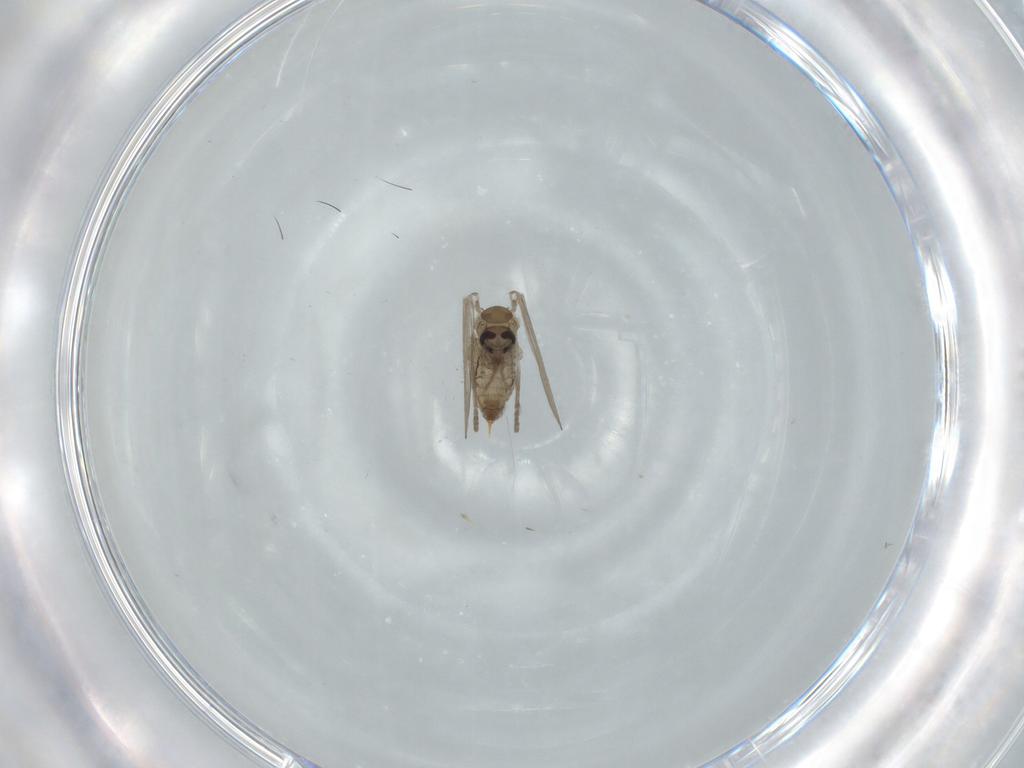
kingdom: Animalia
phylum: Arthropoda
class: Insecta
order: Diptera
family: Psychodidae
